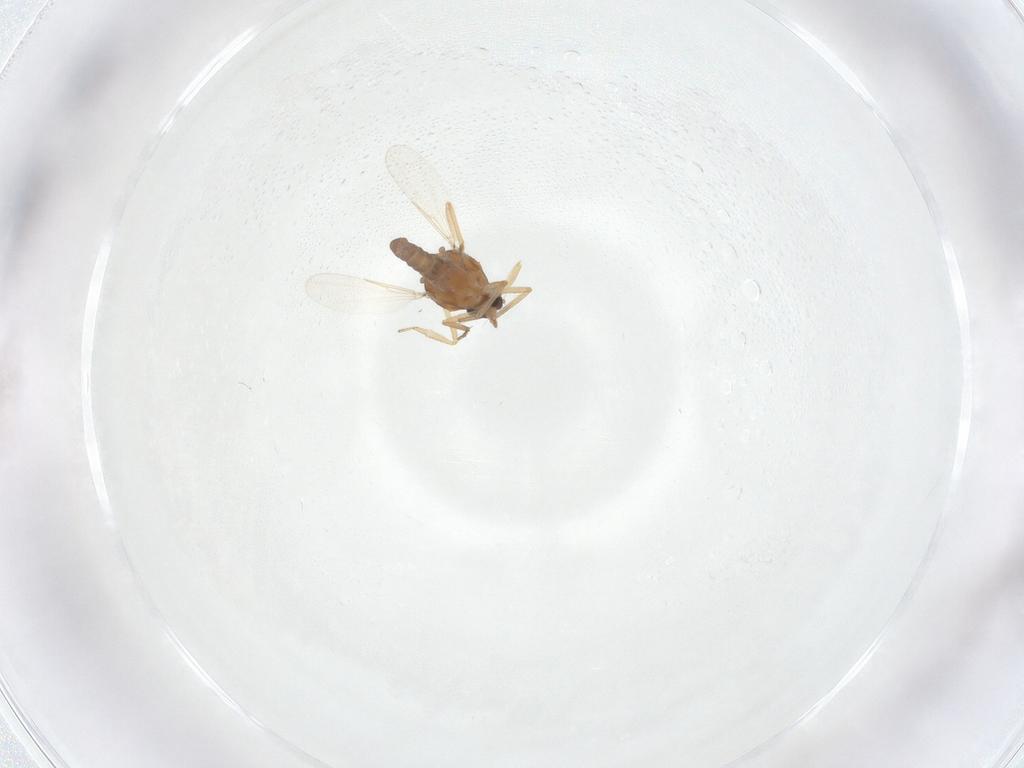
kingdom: Animalia
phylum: Arthropoda
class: Insecta
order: Diptera
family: Ceratopogonidae
